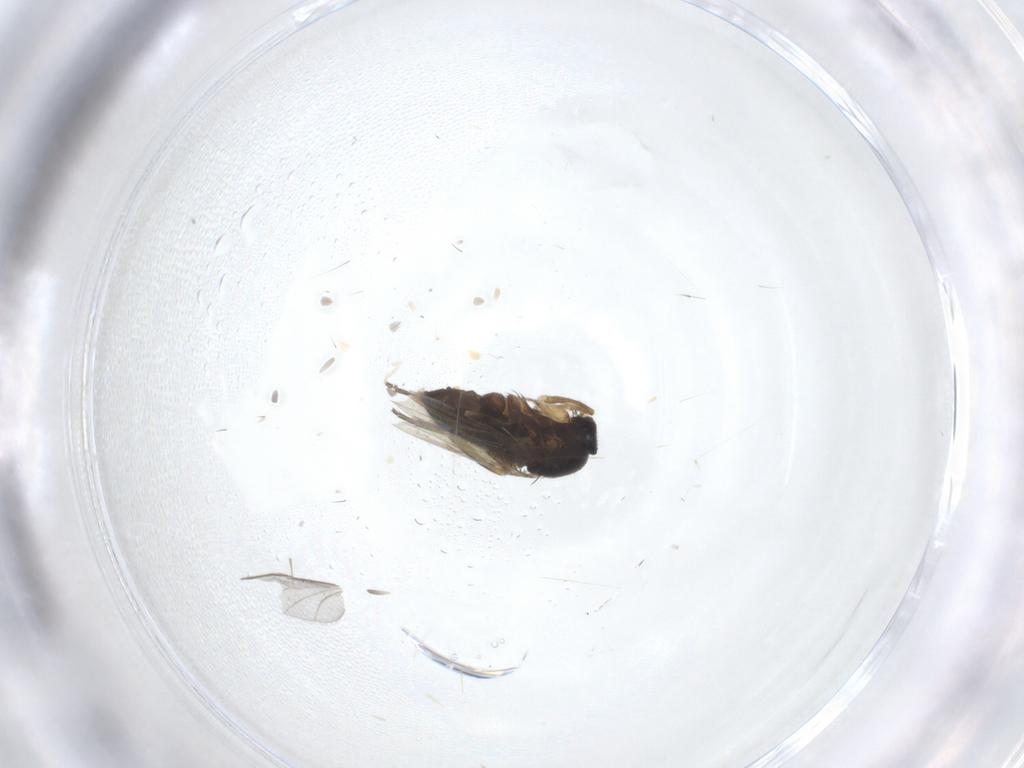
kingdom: Animalia
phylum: Arthropoda
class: Insecta
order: Diptera
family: Phoridae
